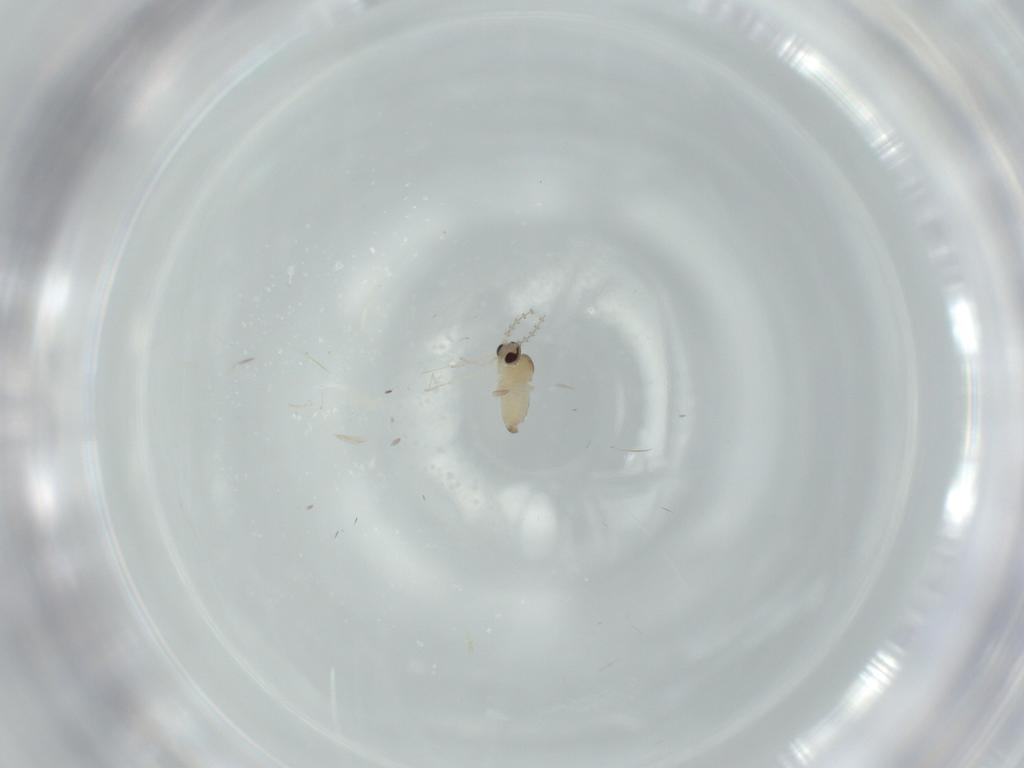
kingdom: Animalia
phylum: Arthropoda
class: Insecta
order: Diptera
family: Cecidomyiidae
